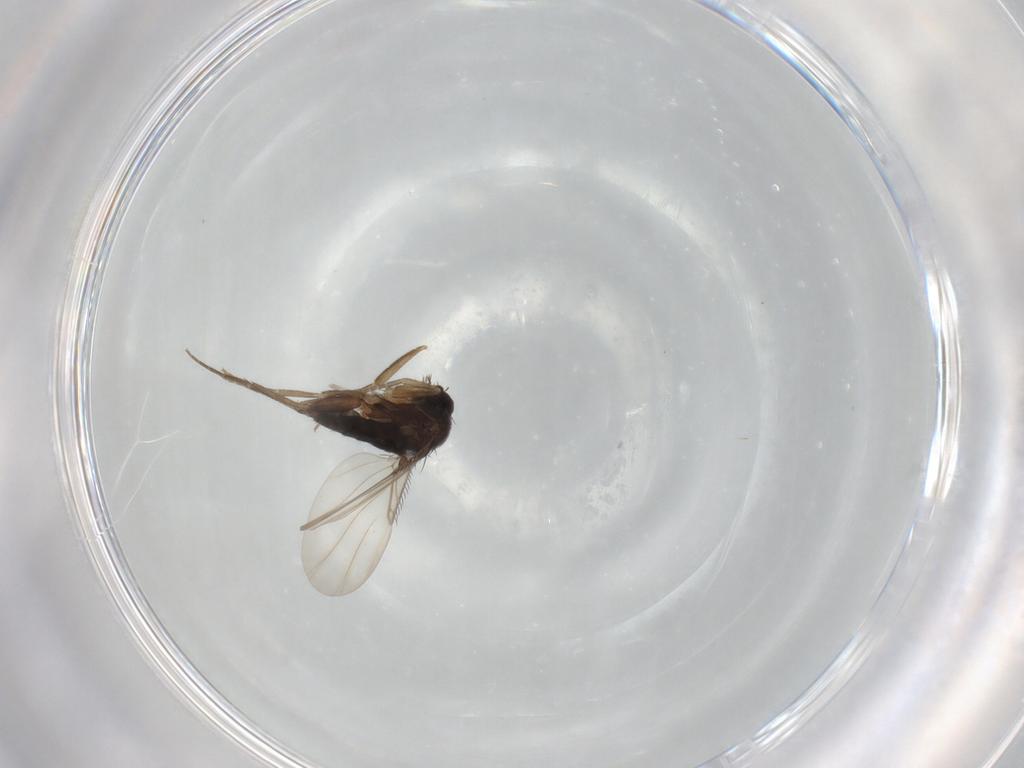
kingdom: Animalia
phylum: Arthropoda
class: Insecta
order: Diptera
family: Phoridae
